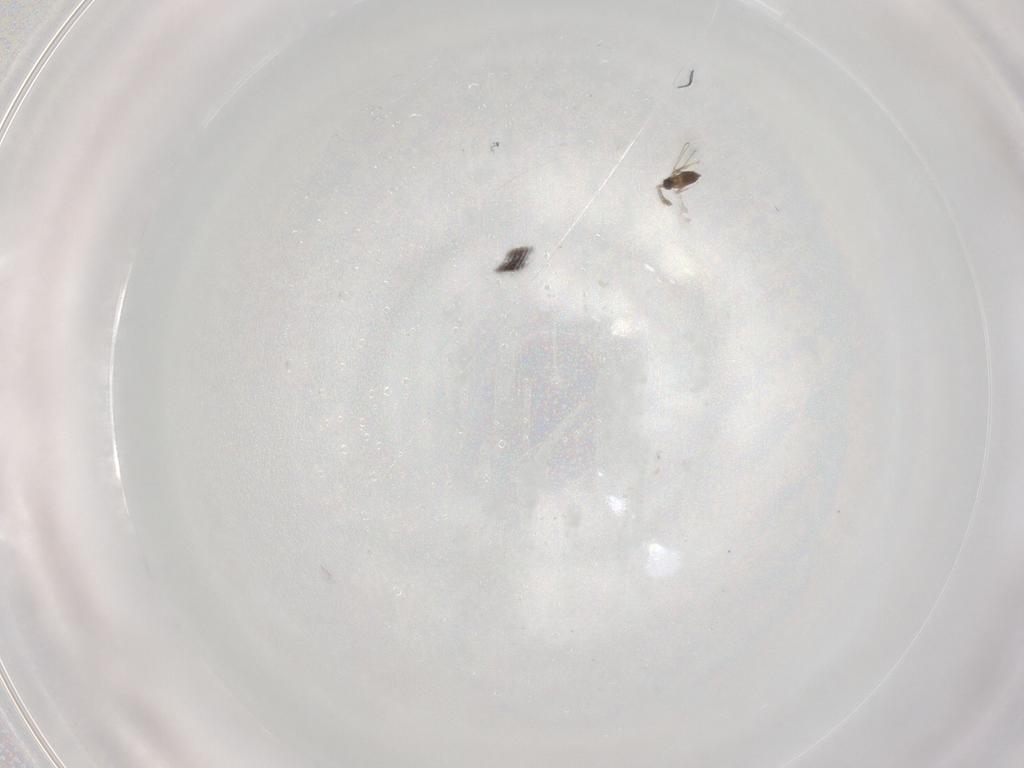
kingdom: Animalia
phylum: Arthropoda
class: Insecta
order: Hymenoptera
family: Mymaridae
